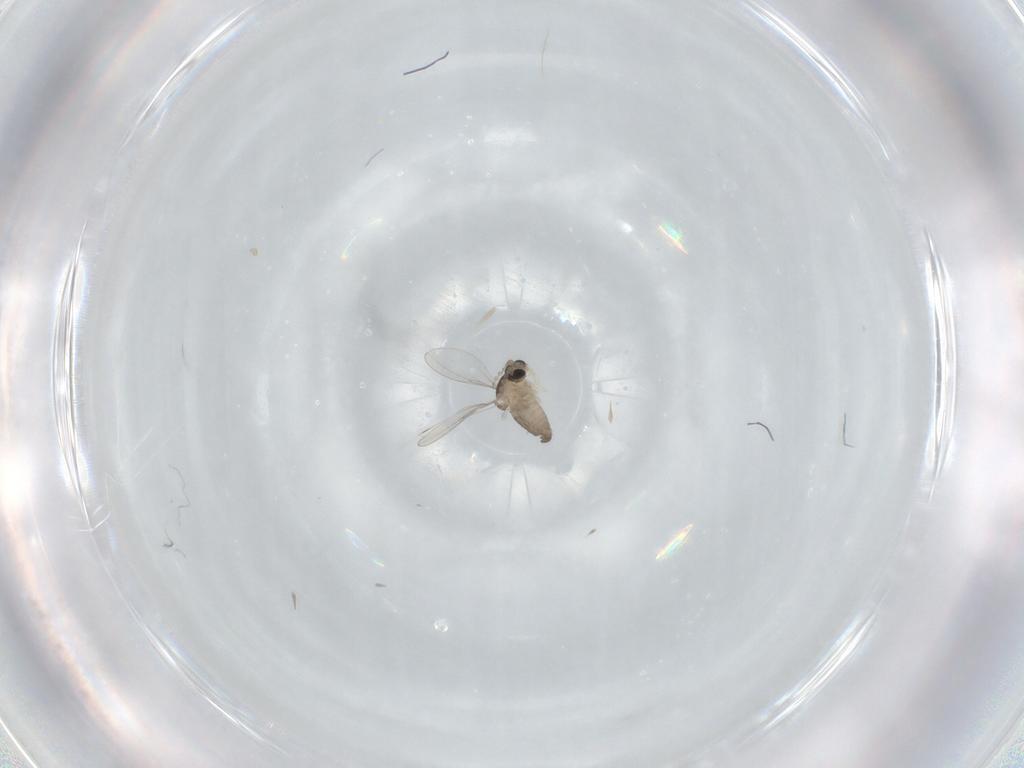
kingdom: Animalia
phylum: Arthropoda
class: Insecta
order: Diptera
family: Cecidomyiidae
